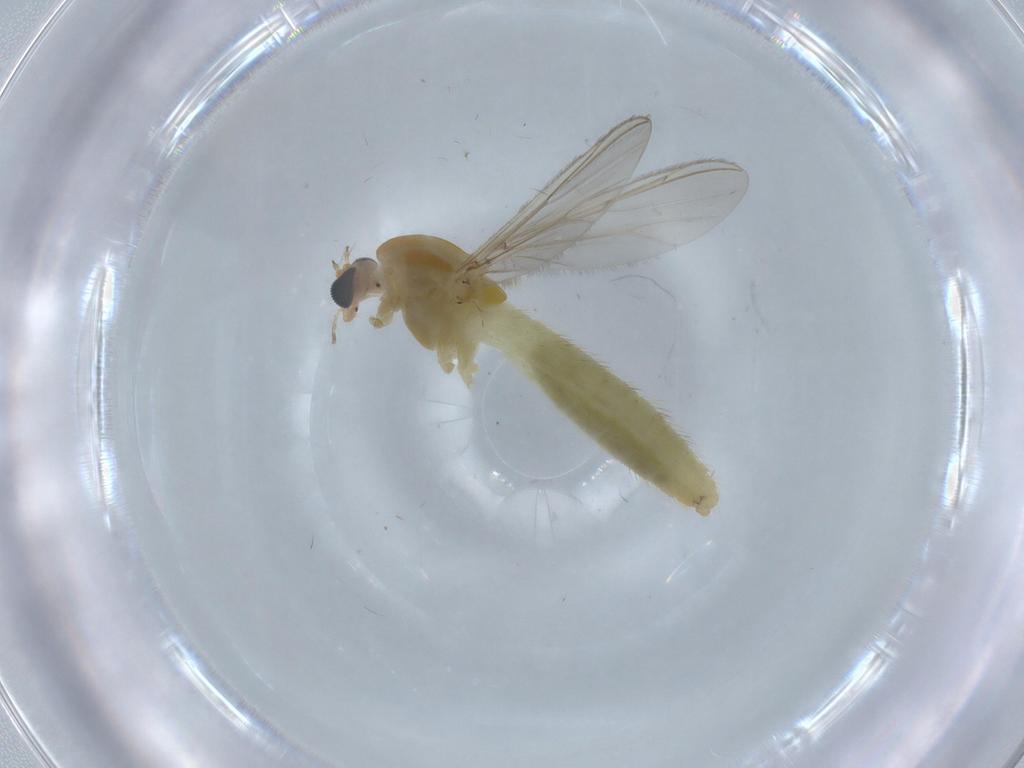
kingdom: Animalia
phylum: Arthropoda
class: Insecta
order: Diptera
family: Chironomidae
